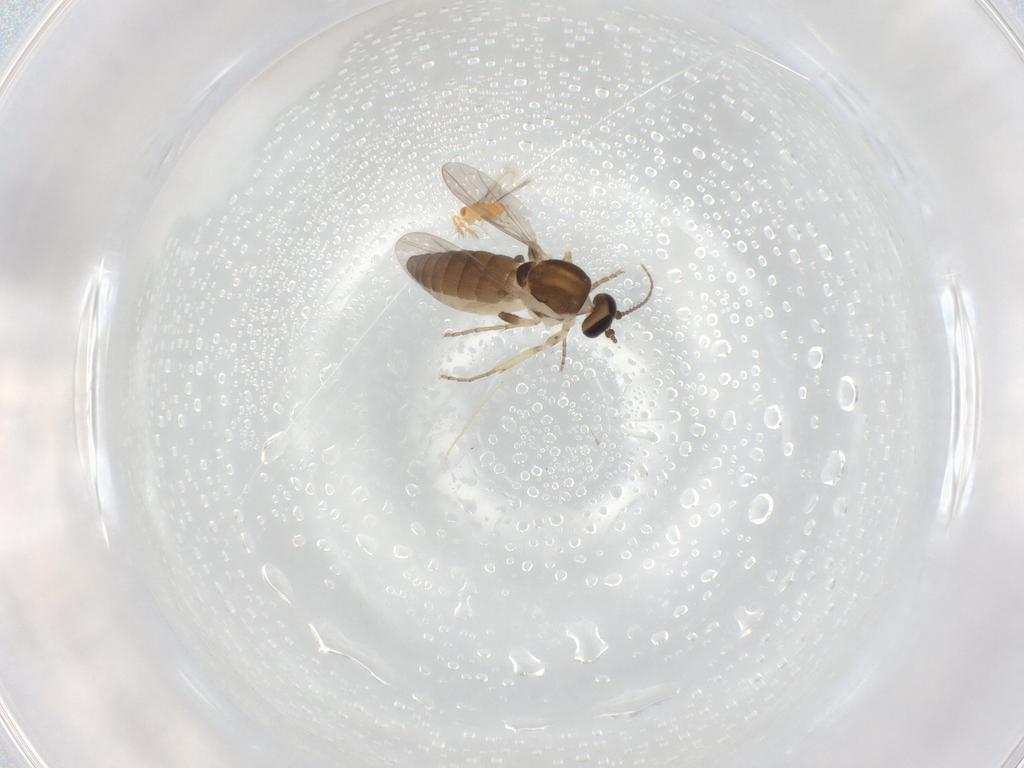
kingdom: Animalia
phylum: Arthropoda
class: Insecta
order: Diptera
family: Ceratopogonidae
